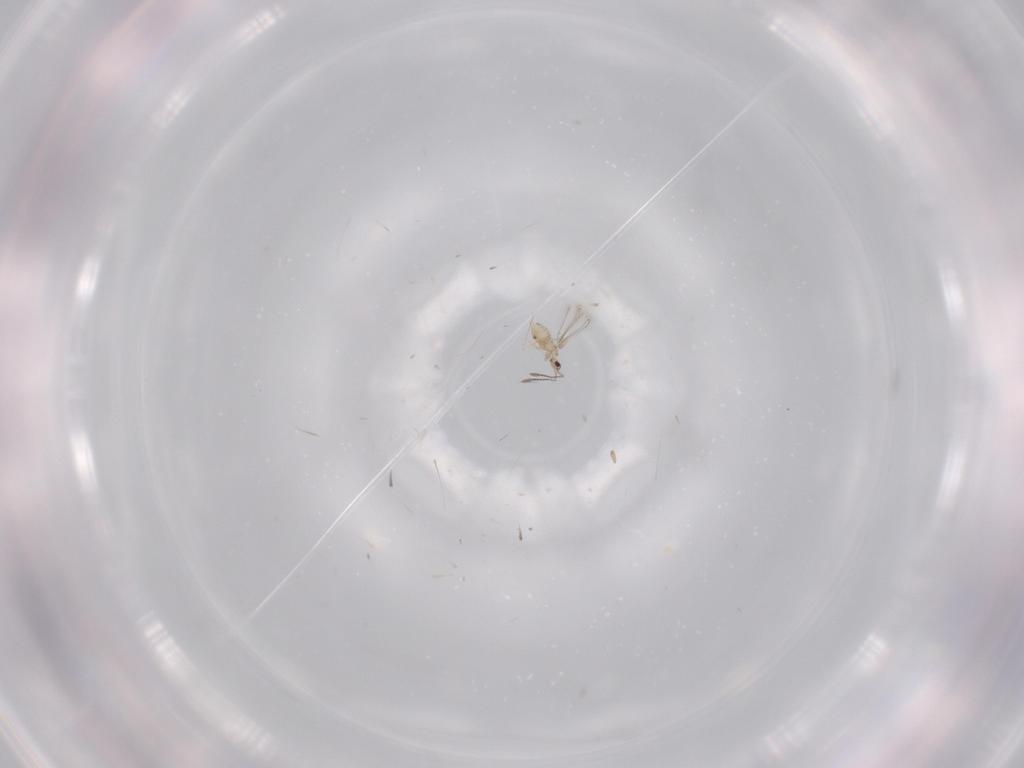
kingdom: Animalia
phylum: Arthropoda
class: Insecta
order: Hymenoptera
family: Mymaridae
